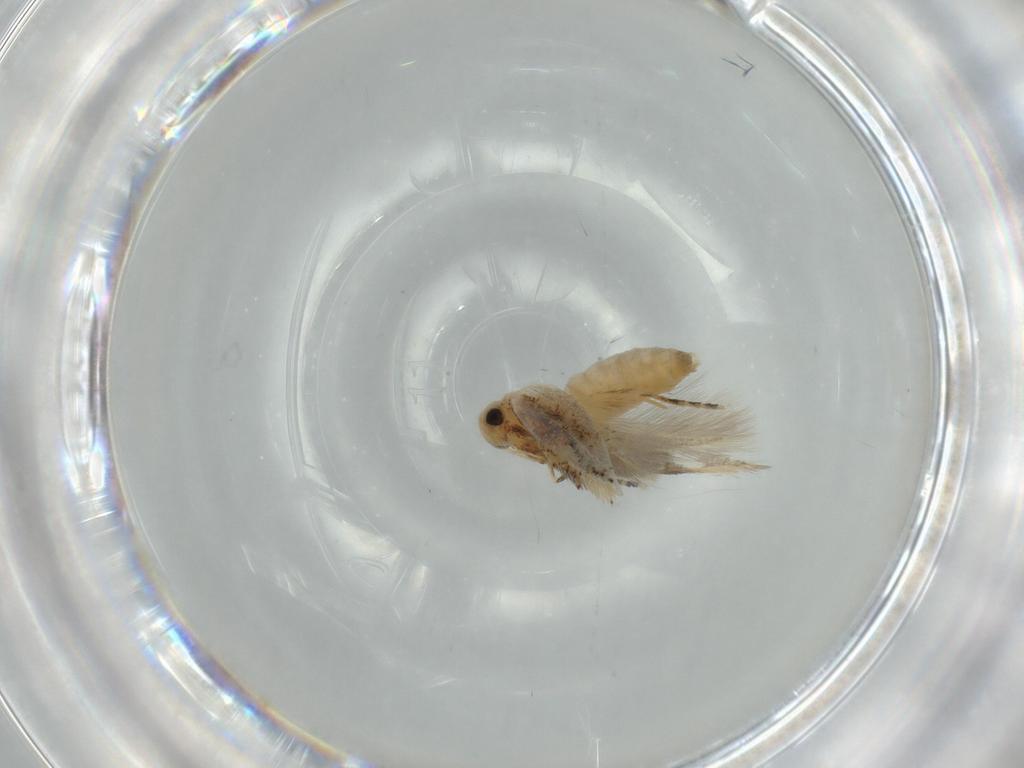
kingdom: Animalia
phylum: Arthropoda
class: Insecta
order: Lepidoptera
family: Bucculatricidae
